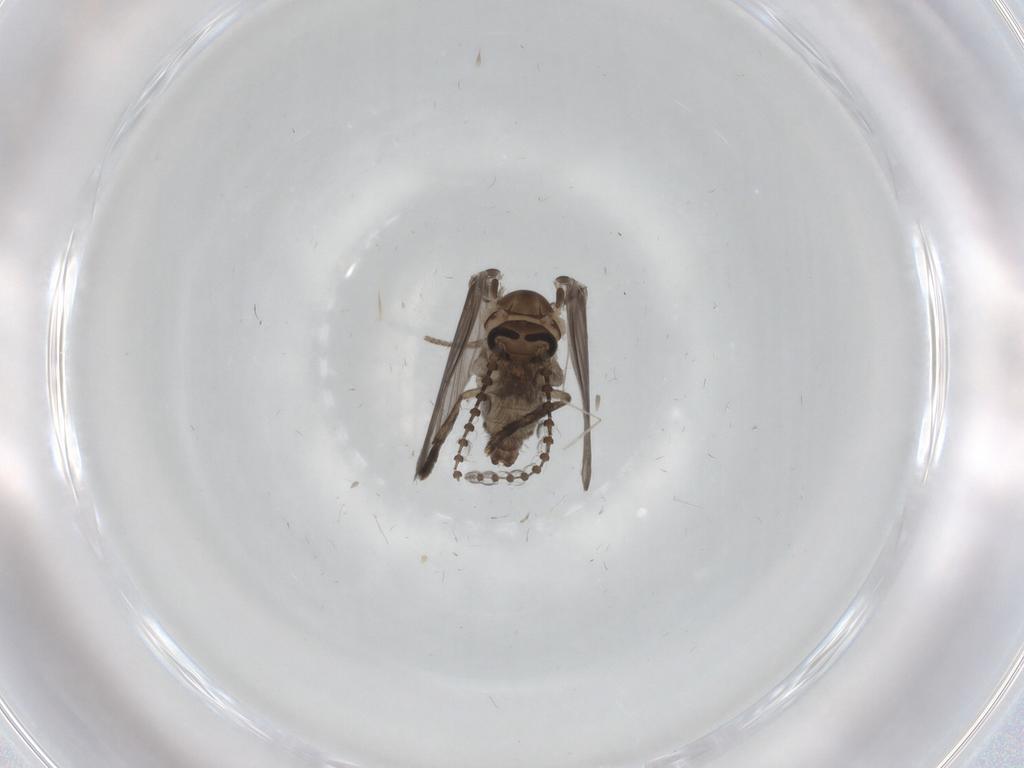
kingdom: Animalia
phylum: Arthropoda
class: Insecta
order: Diptera
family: Psychodidae
